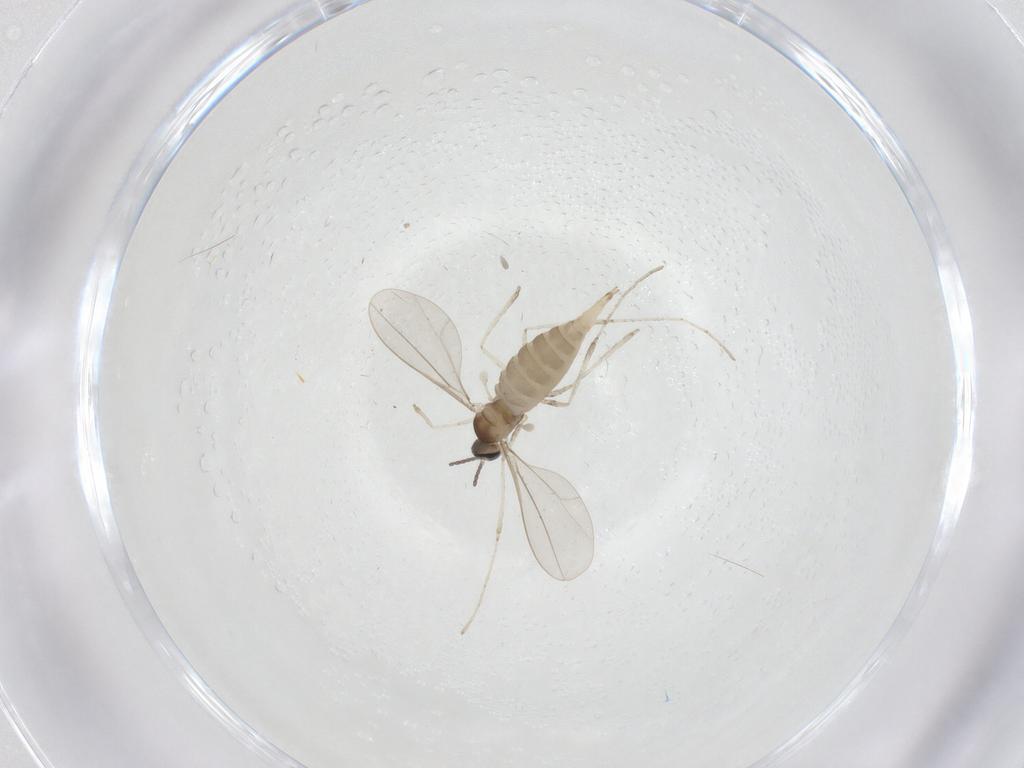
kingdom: Animalia
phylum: Arthropoda
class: Insecta
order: Diptera
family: Cecidomyiidae
